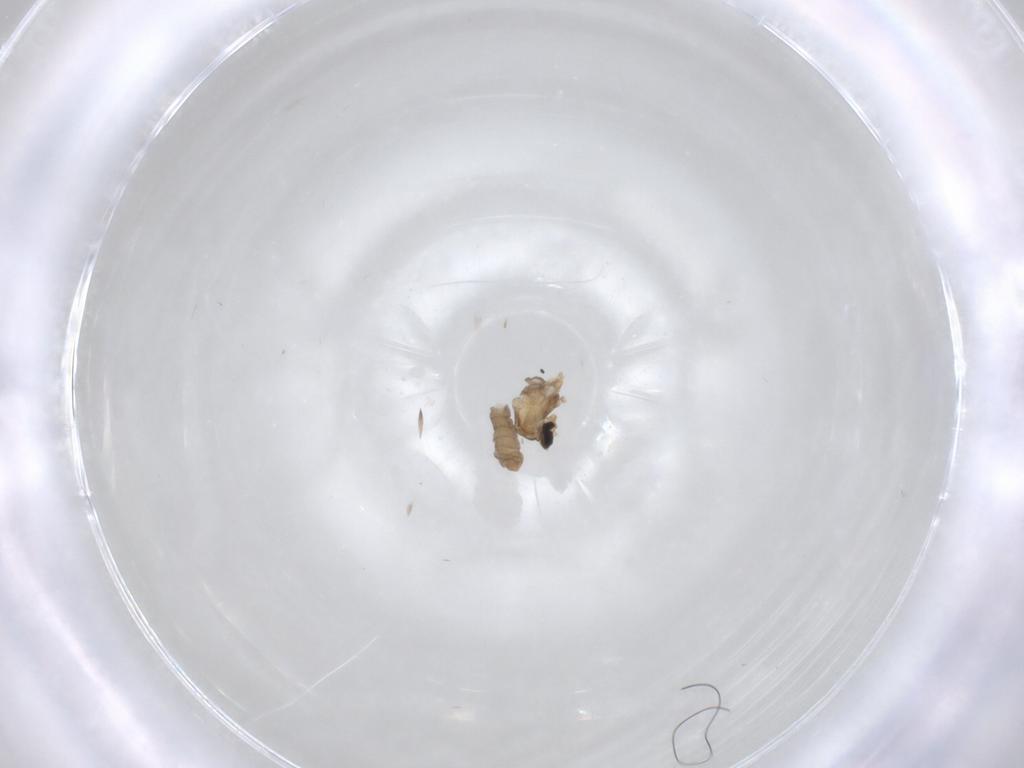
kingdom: Animalia
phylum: Arthropoda
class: Insecta
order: Diptera
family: Cecidomyiidae
